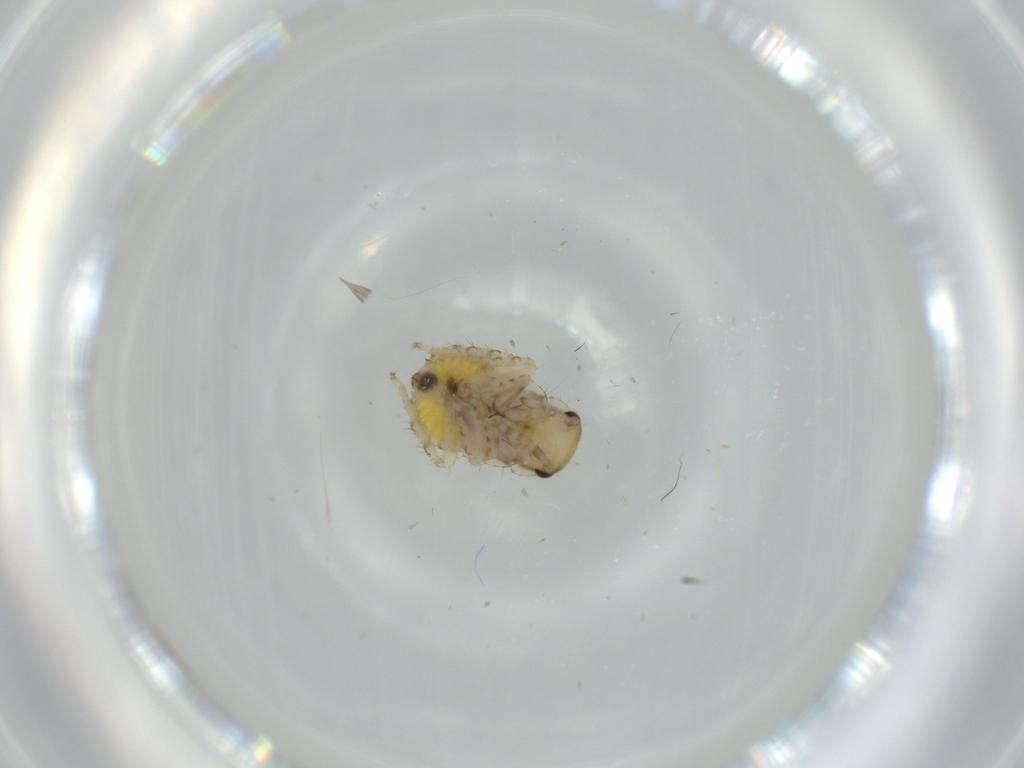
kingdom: Animalia
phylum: Arthropoda
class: Insecta
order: Blattodea
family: Ectobiidae
